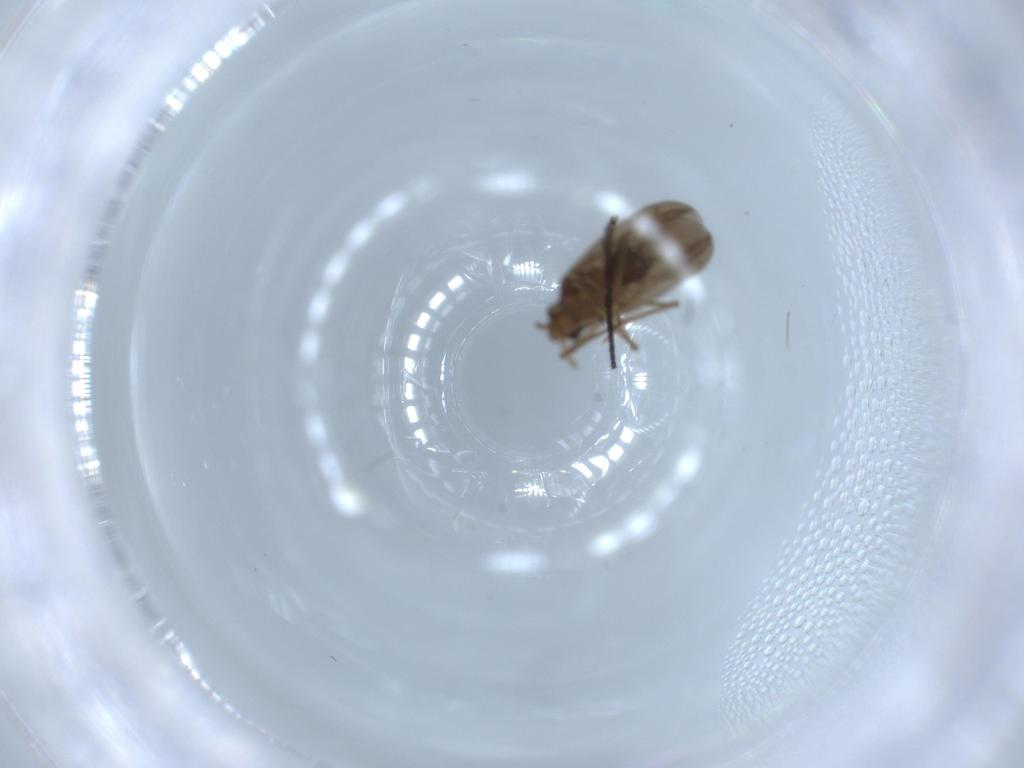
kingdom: Animalia
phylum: Arthropoda
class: Insecta
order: Hemiptera
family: Ceratocombidae
